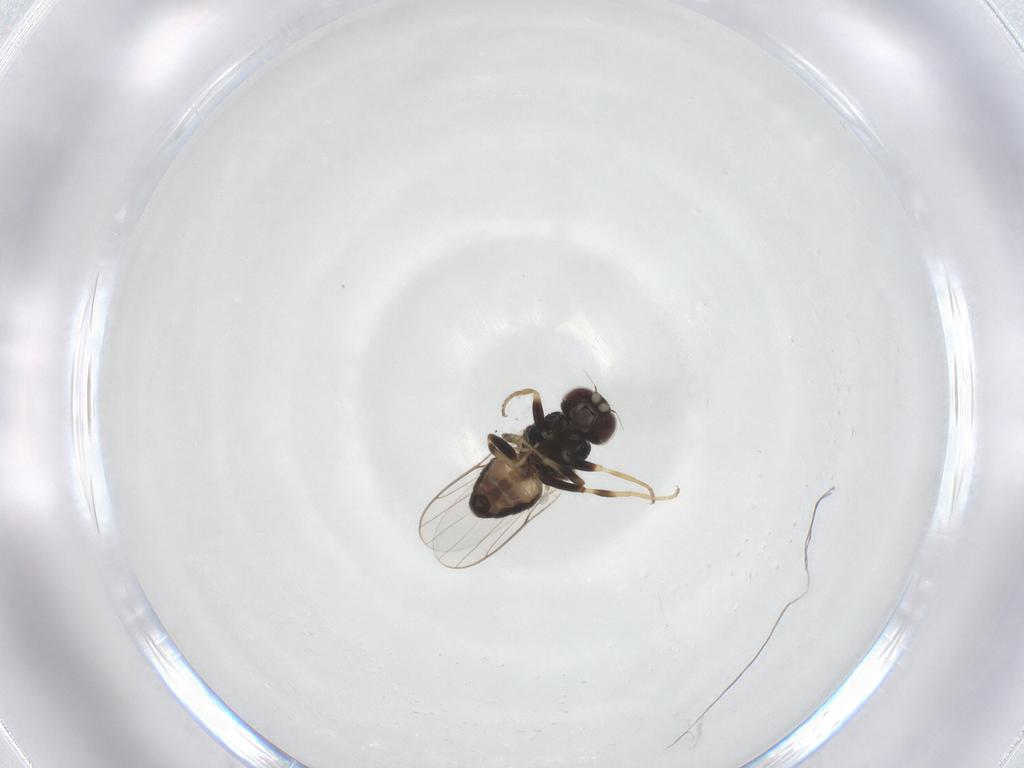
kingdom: Animalia
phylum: Arthropoda
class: Insecta
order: Diptera
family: Chloropidae
